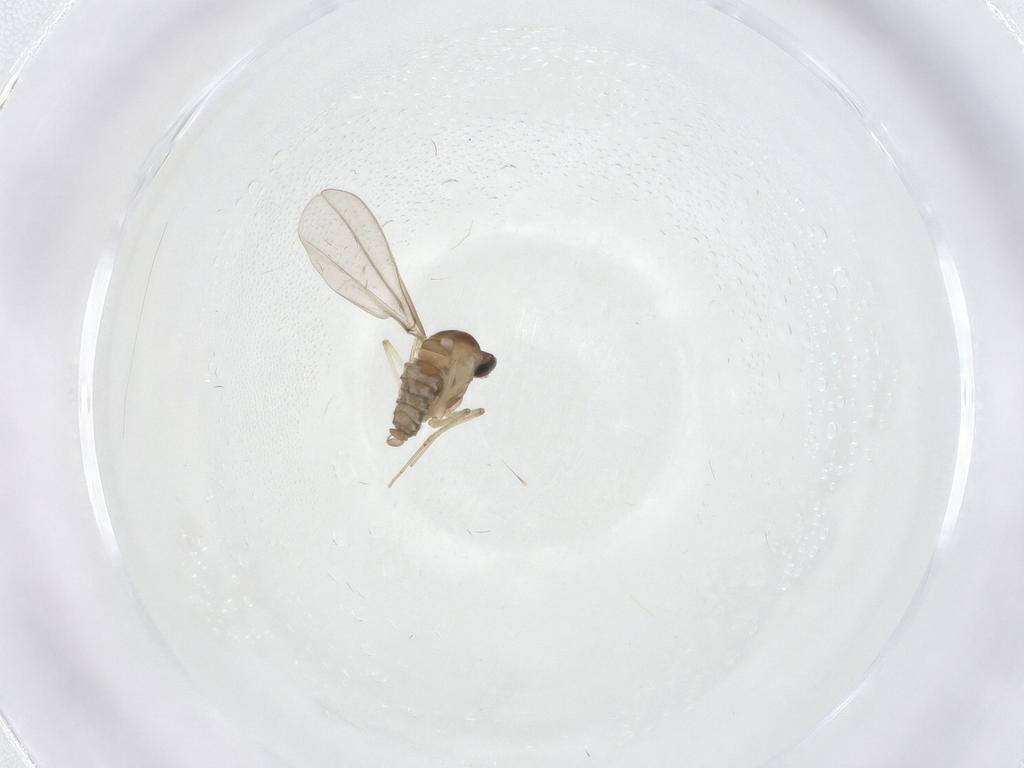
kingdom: Animalia
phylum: Arthropoda
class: Insecta
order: Diptera
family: Cecidomyiidae
